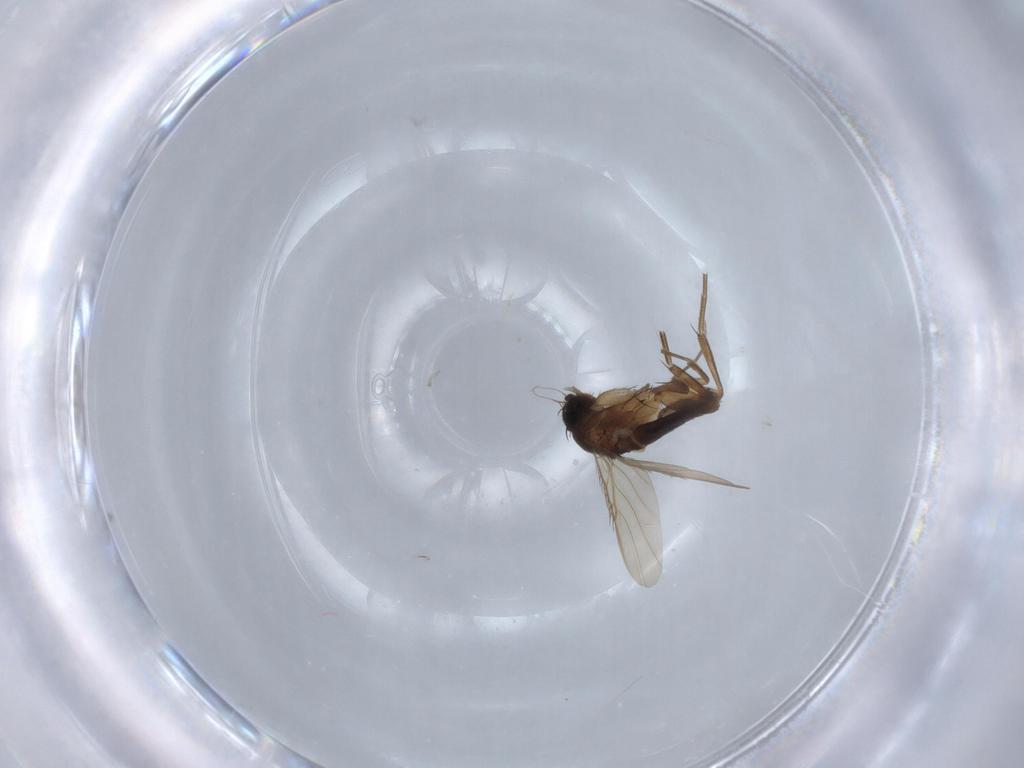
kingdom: Animalia
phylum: Arthropoda
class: Insecta
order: Diptera
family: Phoridae
